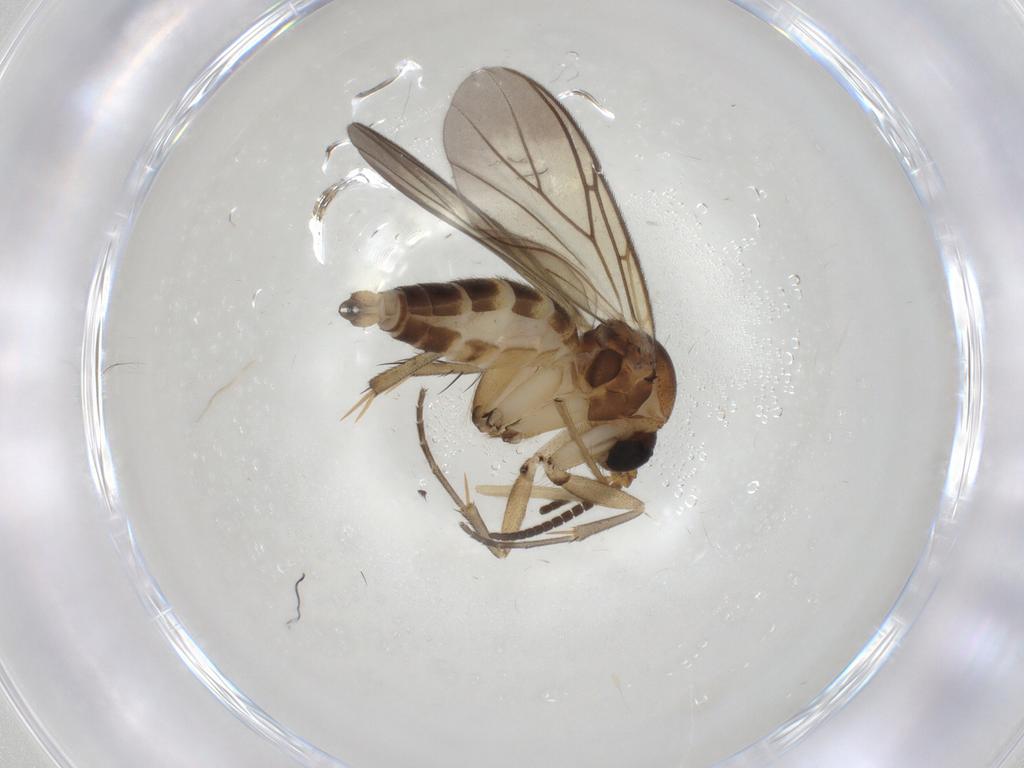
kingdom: Animalia
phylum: Arthropoda
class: Insecta
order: Diptera
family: Mycetophilidae
